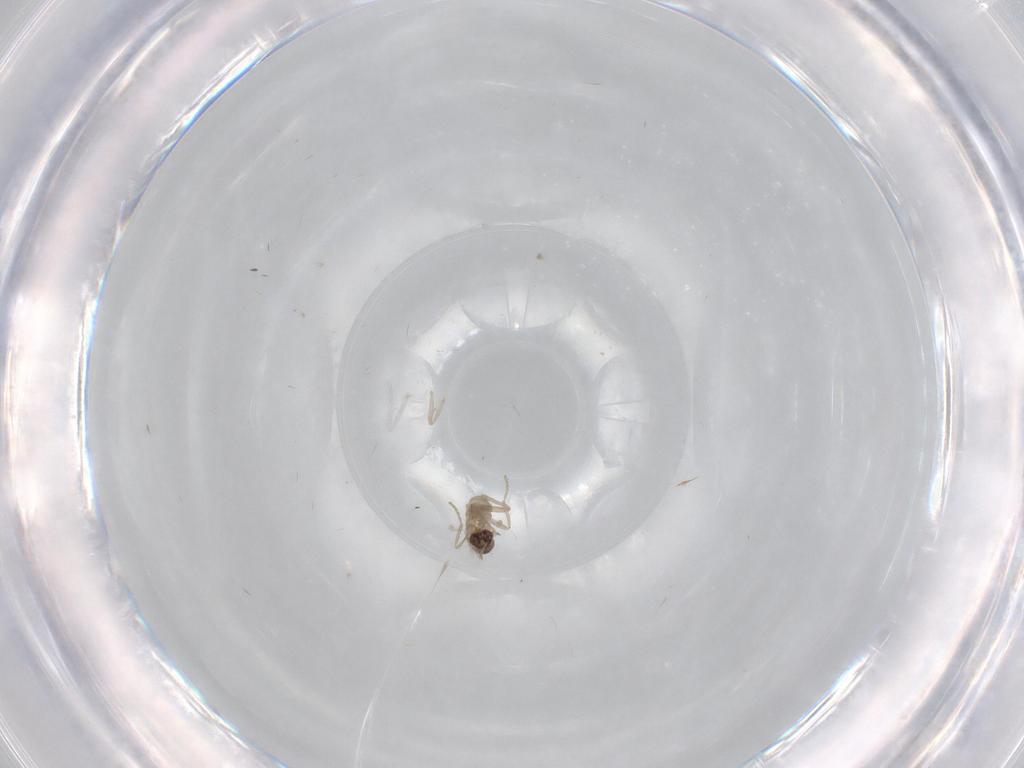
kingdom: Animalia
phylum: Arthropoda
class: Insecta
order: Diptera
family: Cecidomyiidae
